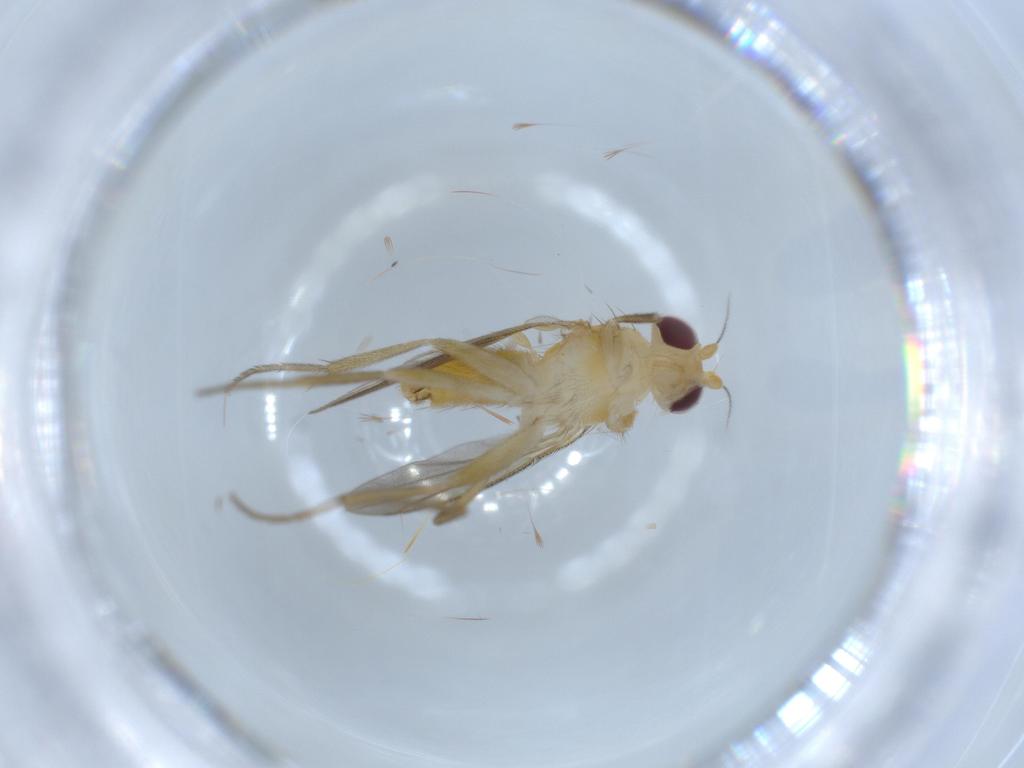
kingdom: Animalia
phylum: Arthropoda
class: Insecta
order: Diptera
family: Clusiidae
